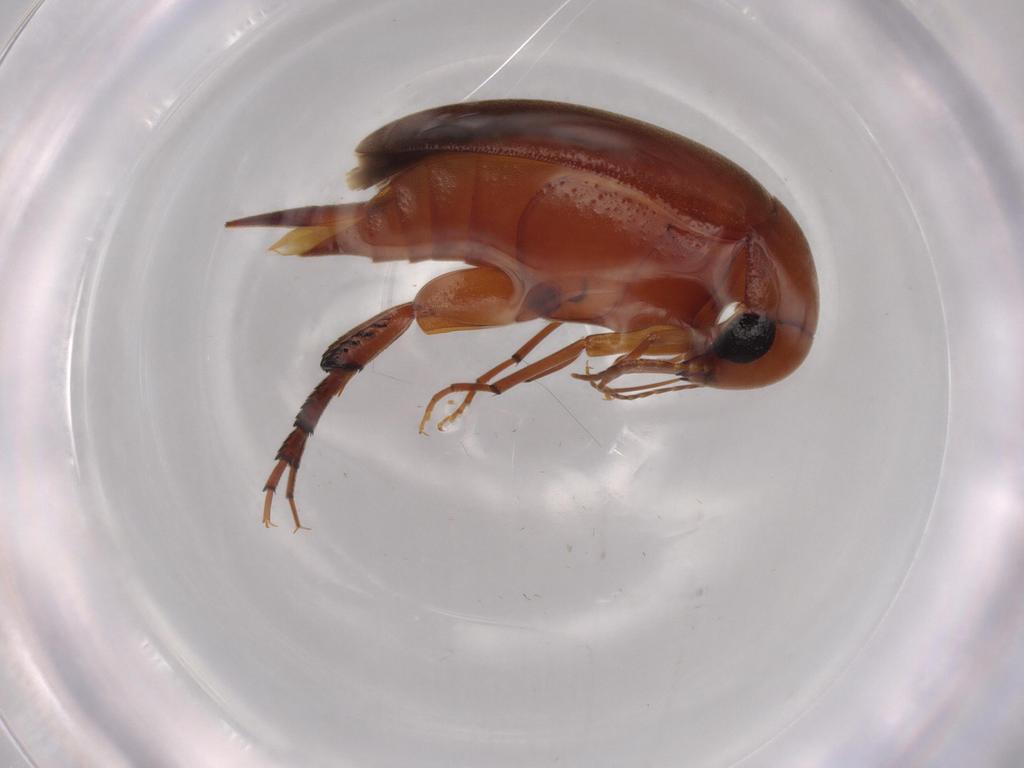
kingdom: Animalia
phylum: Arthropoda
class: Insecta
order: Coleoptera
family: Mordellidae
